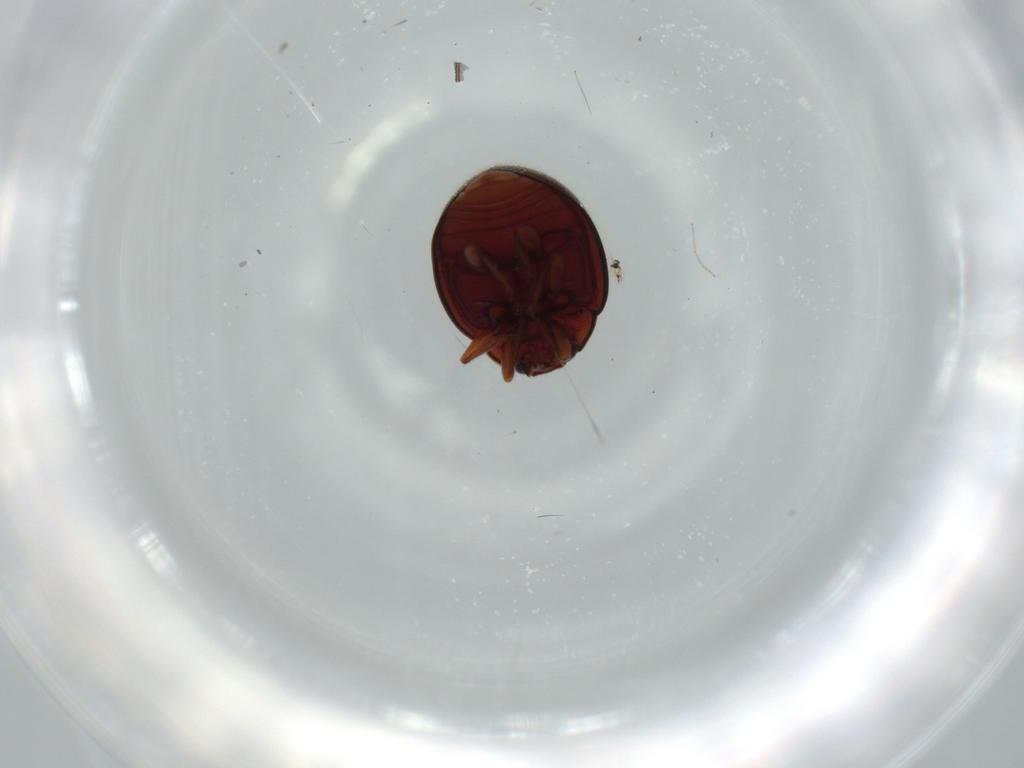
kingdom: Animalia
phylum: Arthropoda
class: Insecta
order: Coleoptera
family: Coccinellidae
